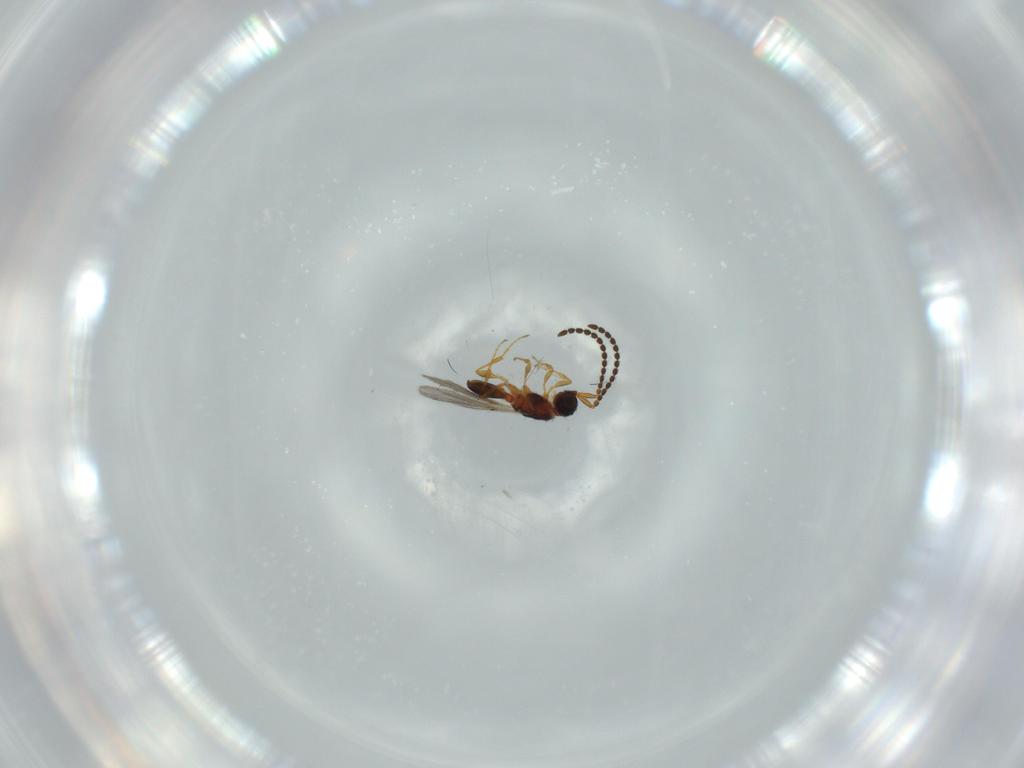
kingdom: Animalia
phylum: Arthropoda
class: Insecta
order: Hymenoptera
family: Diapriidae
